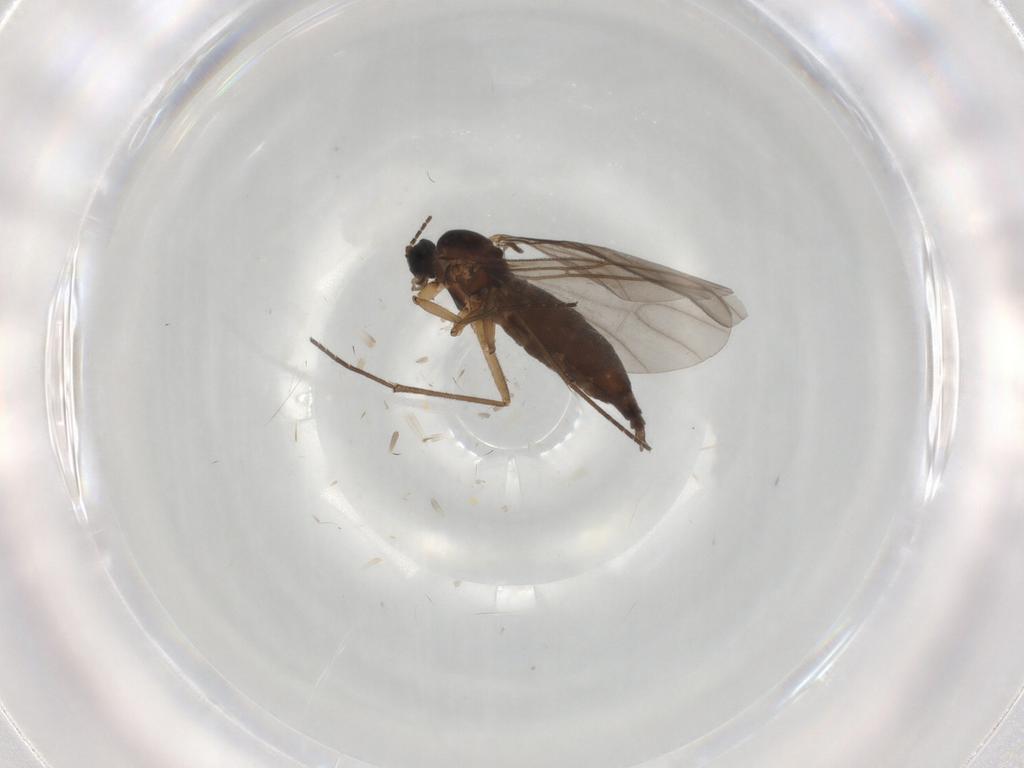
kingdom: Animalia
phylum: Arthropoda
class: Insecta
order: Diptera
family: Sciaridae
